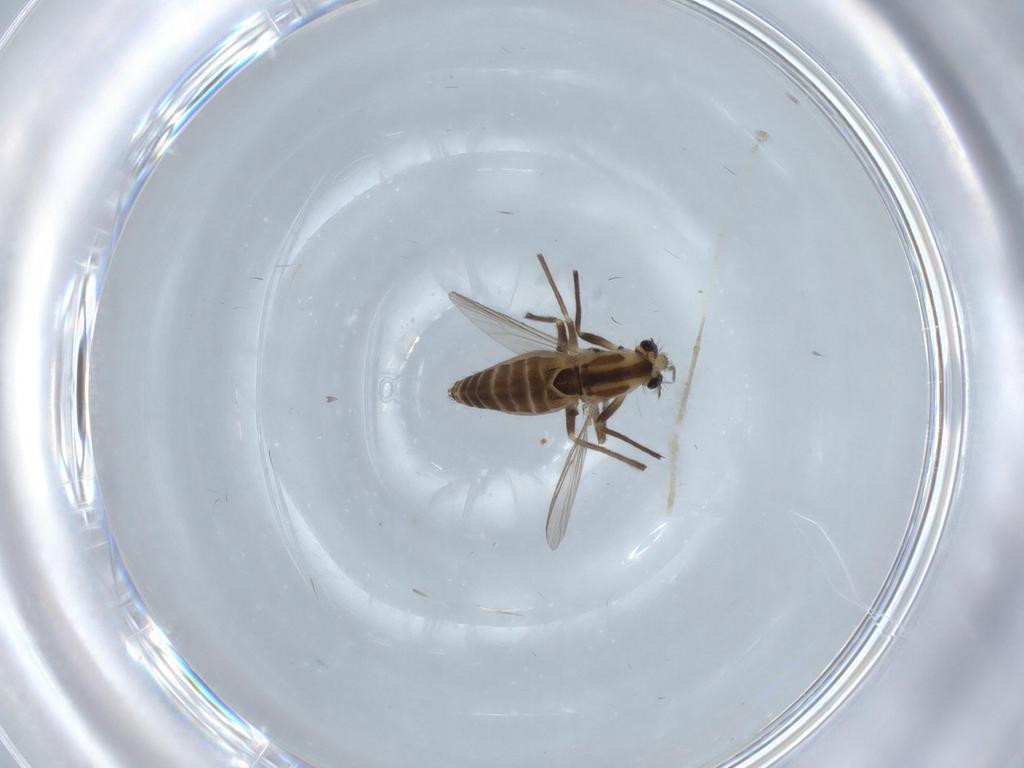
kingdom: Animalia
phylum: Arthropoda
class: Insecta
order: Diptera
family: Chironomidae
